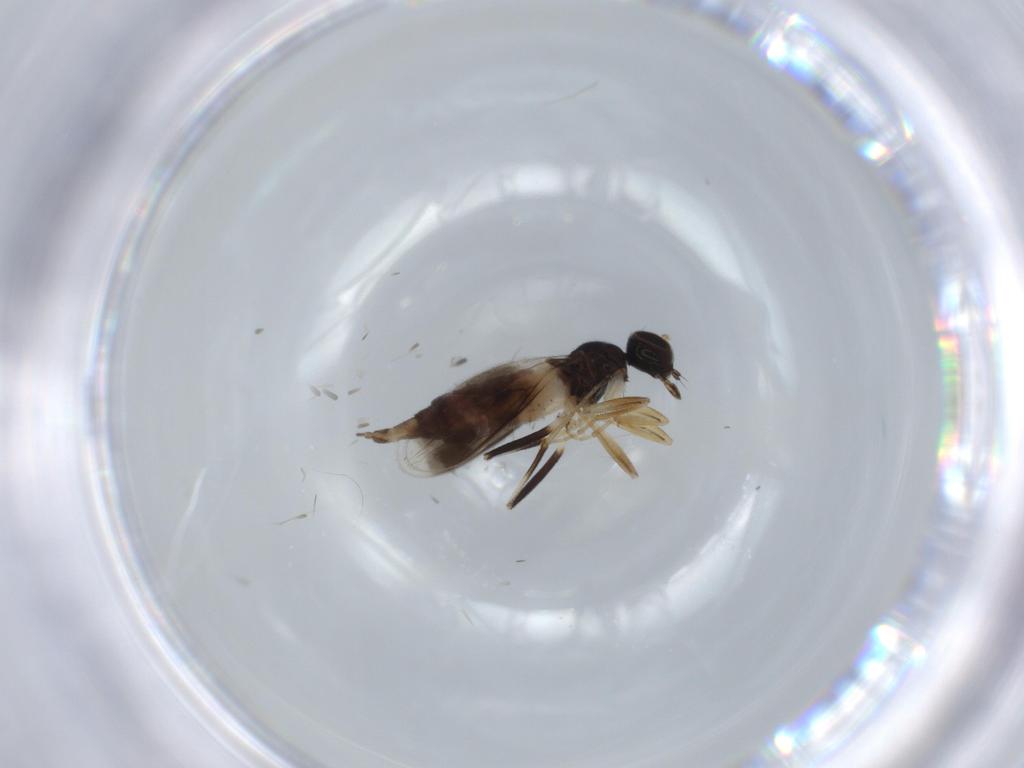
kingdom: Animalia
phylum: Arthropoda
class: Insecta
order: Diptera
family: Hybotidae
